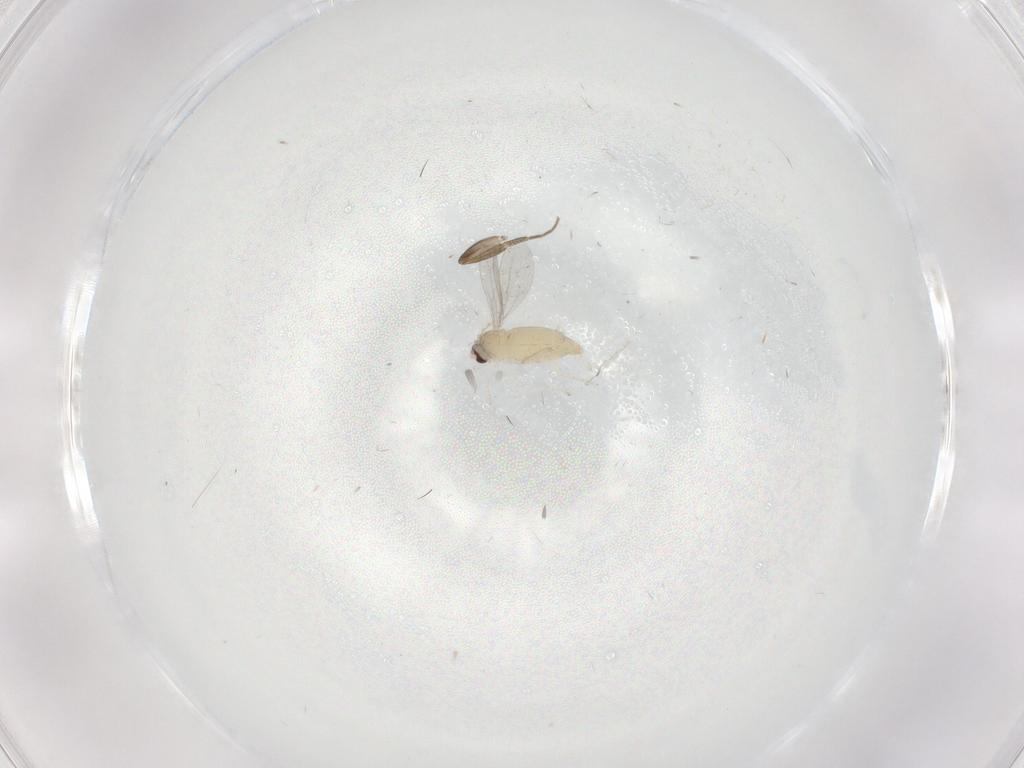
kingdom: Animalia
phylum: Arthropoda
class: Insecta
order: Diptera
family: Cecidomyiidae
